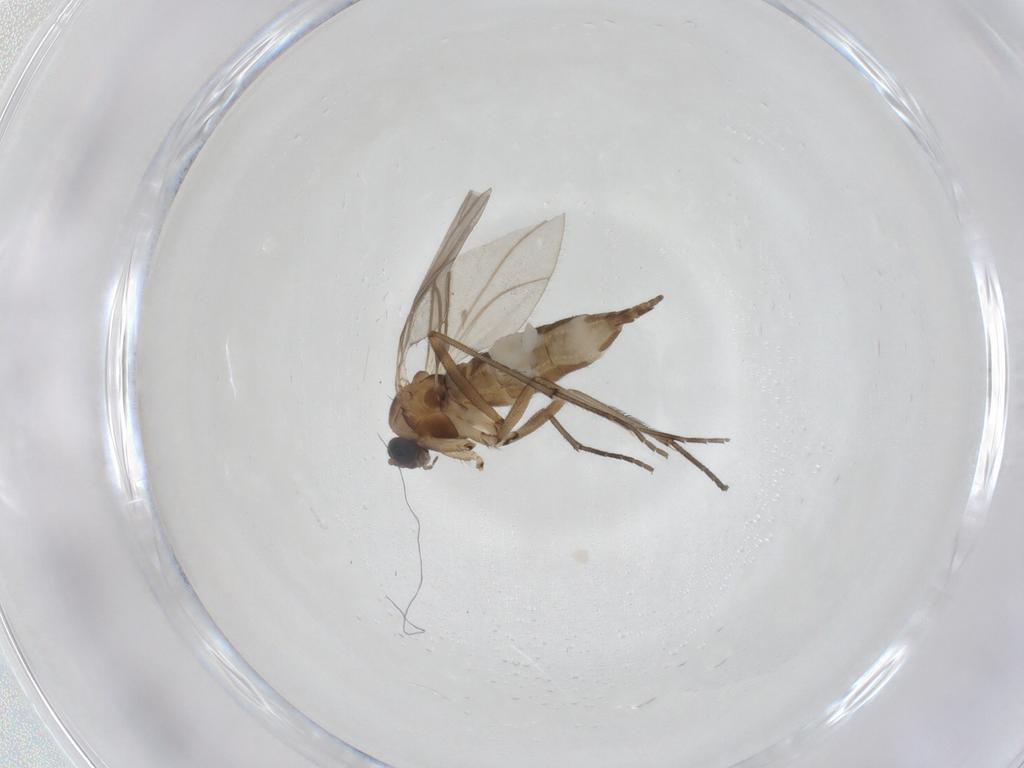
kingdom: Animalia
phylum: Arthropoda
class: Insecta
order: Diptera
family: Sciaridae
